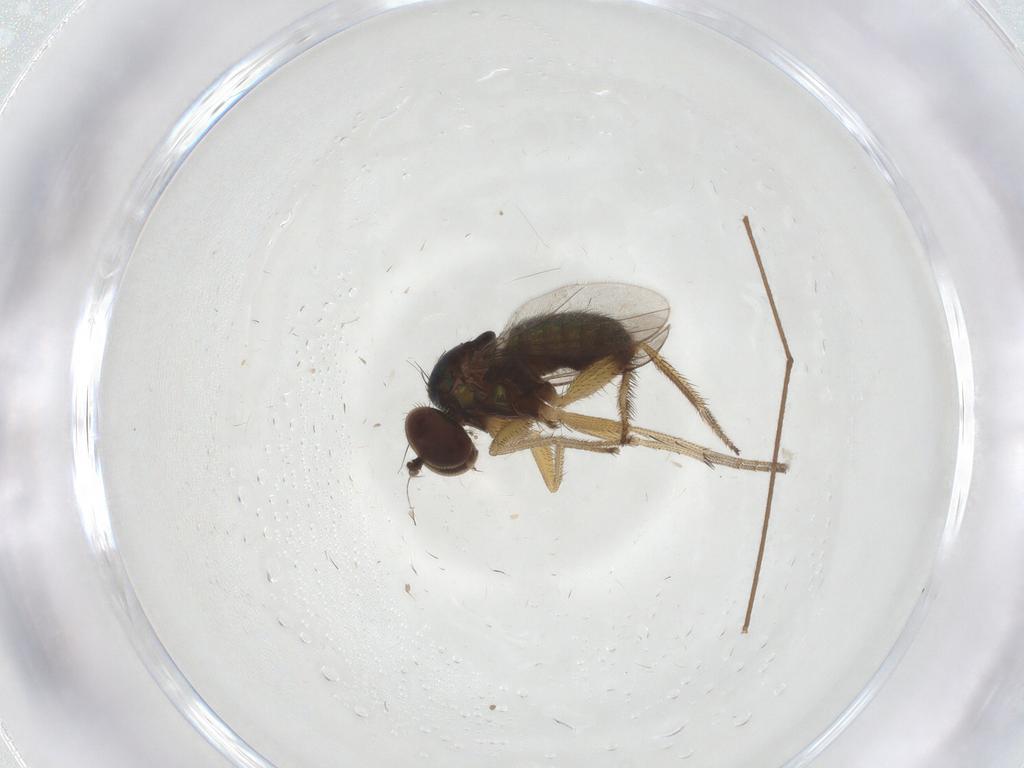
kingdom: Animalia
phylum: Arthropoda
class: Insecta
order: Diptera
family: Chironomidae
